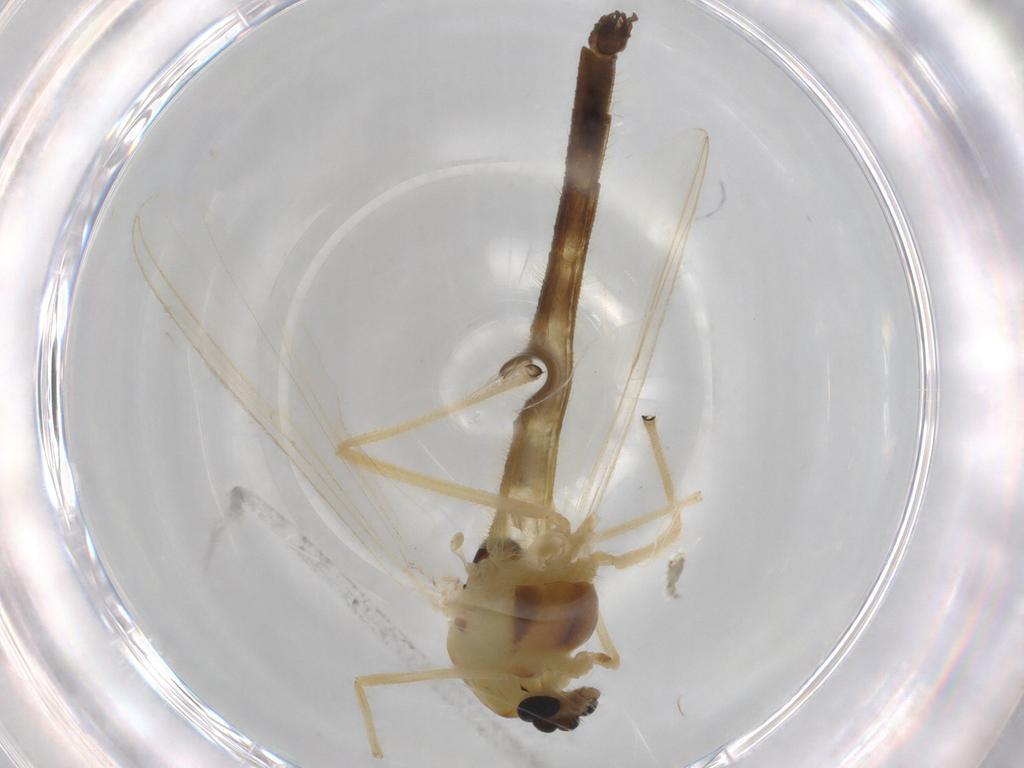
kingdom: Animalia
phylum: Arthropoda
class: Insecta
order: Diptera
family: Chironomidae
